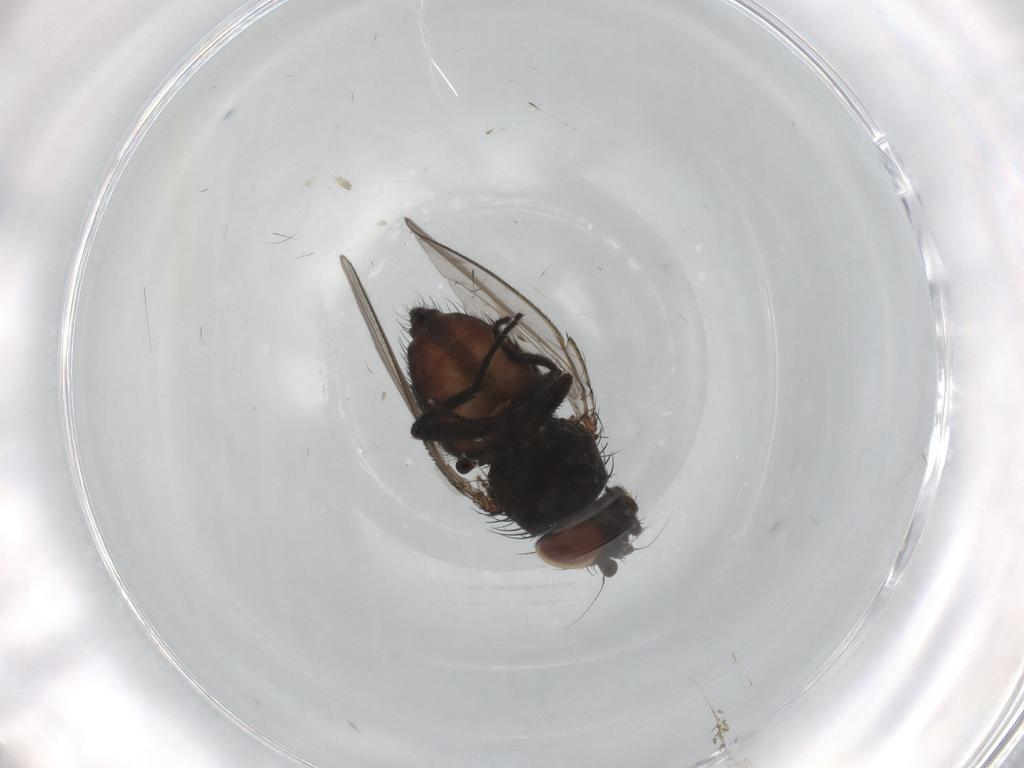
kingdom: Animalia
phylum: Arthropoda
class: Insecta
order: Diptera
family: Milichiidae
